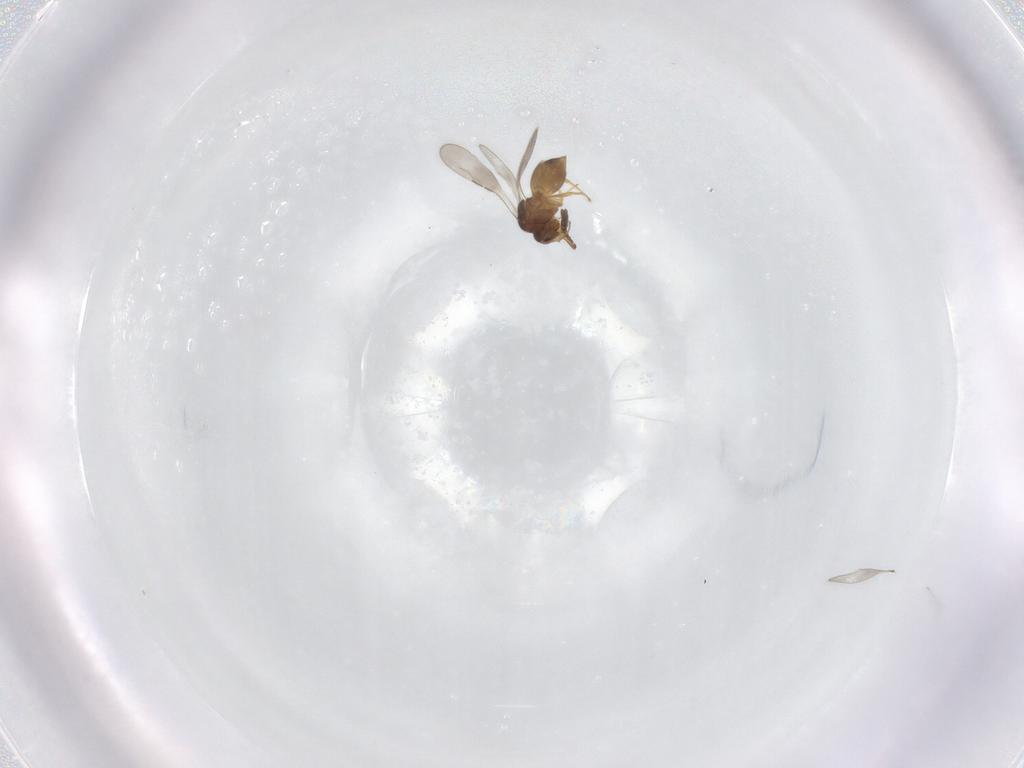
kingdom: Animalia
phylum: Arthropoda
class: Insecta
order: Hymenoptera
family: Ceraphronidae
